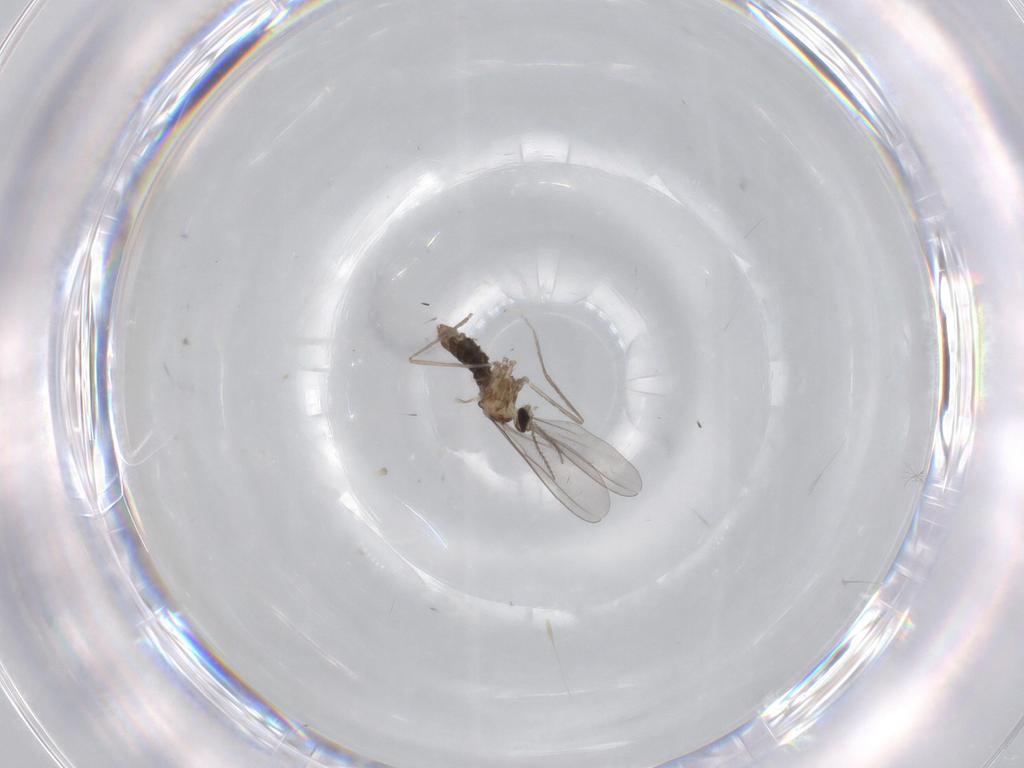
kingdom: Animalia
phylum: Arthropoda
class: Insecta
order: Diptera
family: Cecidomyiidae
